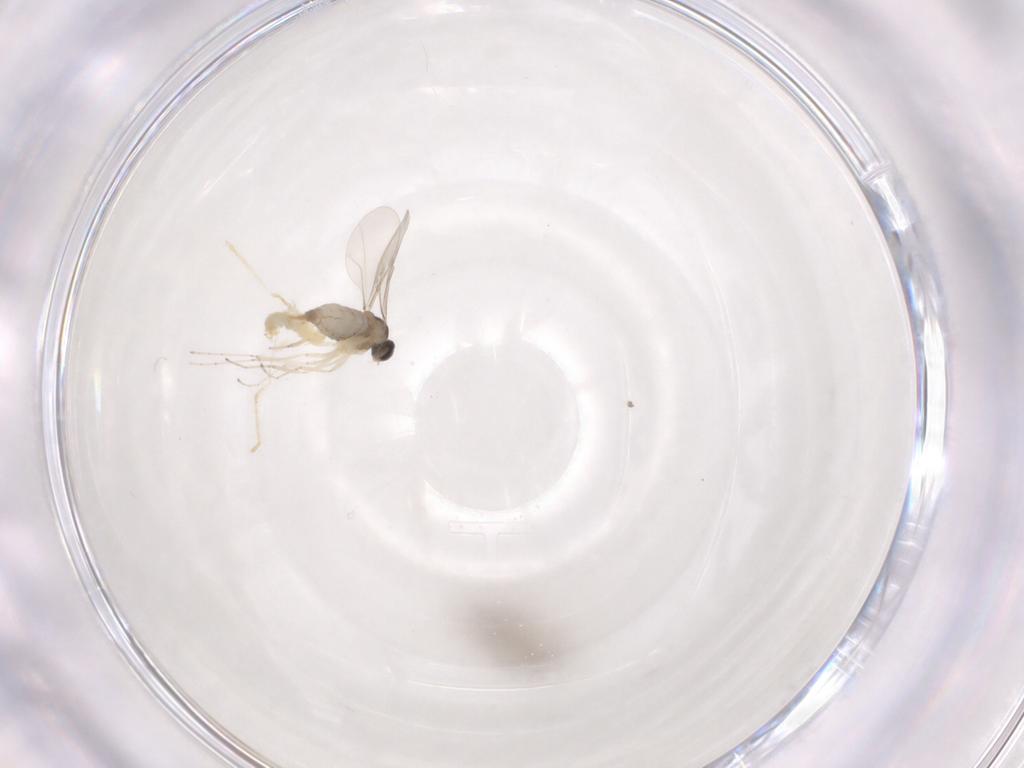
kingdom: Animalia
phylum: Arthropoda
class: Insecta
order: Diptera
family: Cecidomyiidae
